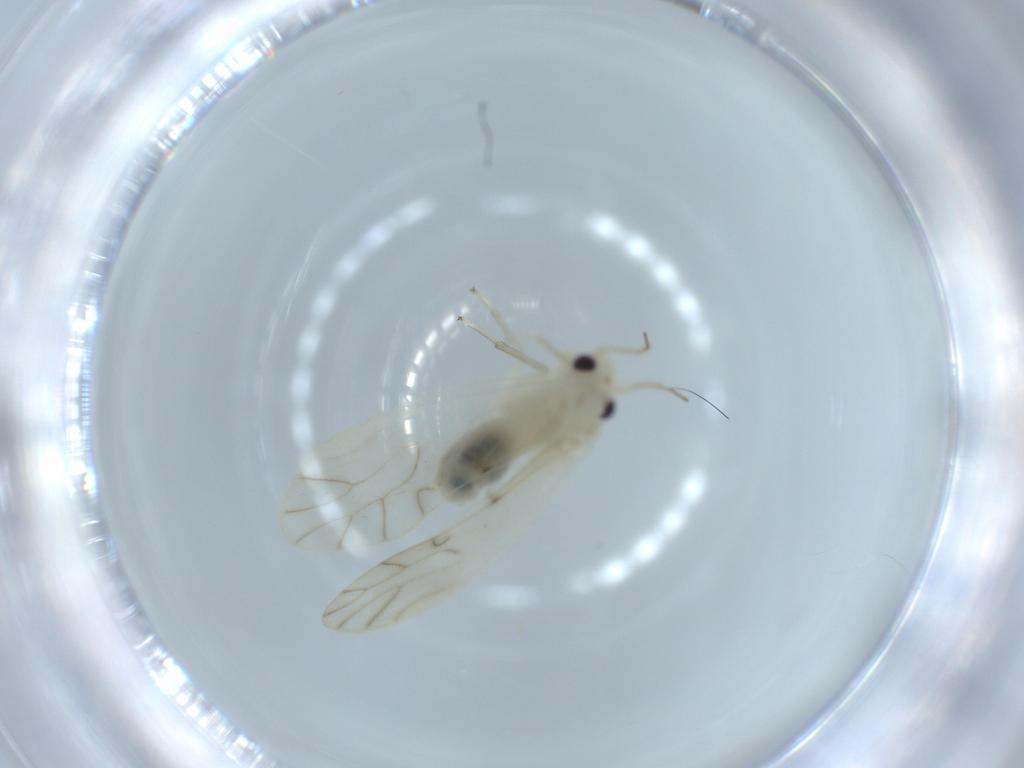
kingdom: Animalia
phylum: Arthropoda
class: Insecta
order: Psocodea
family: Caeciliusidae
